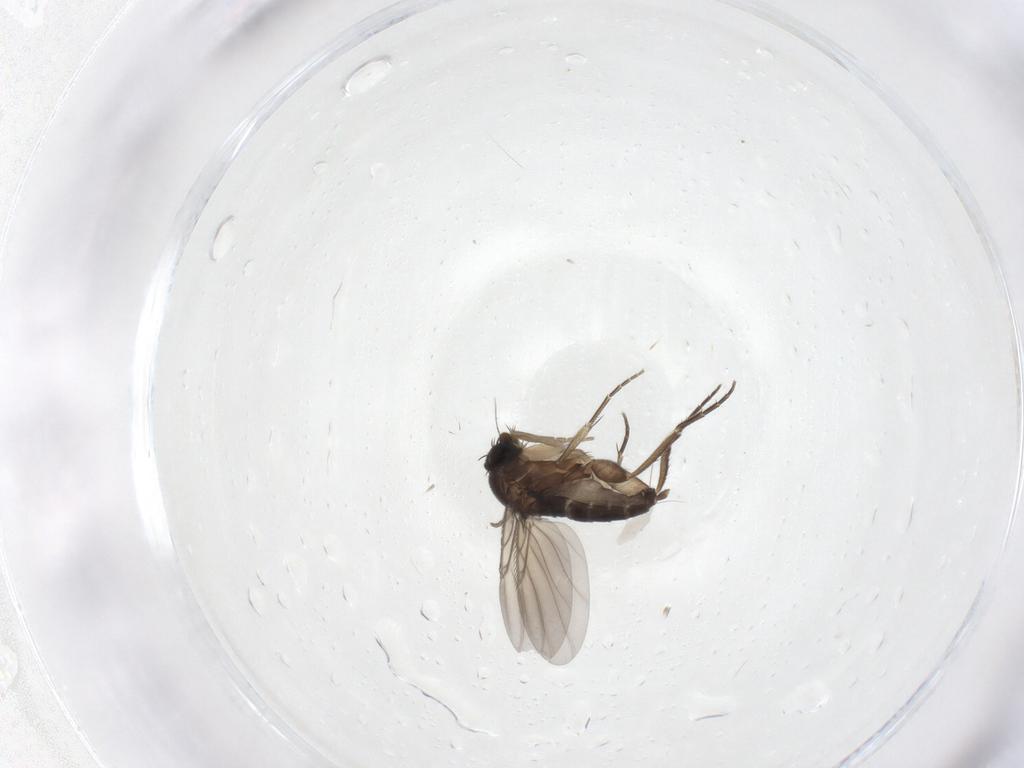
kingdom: Animalia
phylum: Arthropoda
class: Insecta
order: Diptera
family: Phoridae
